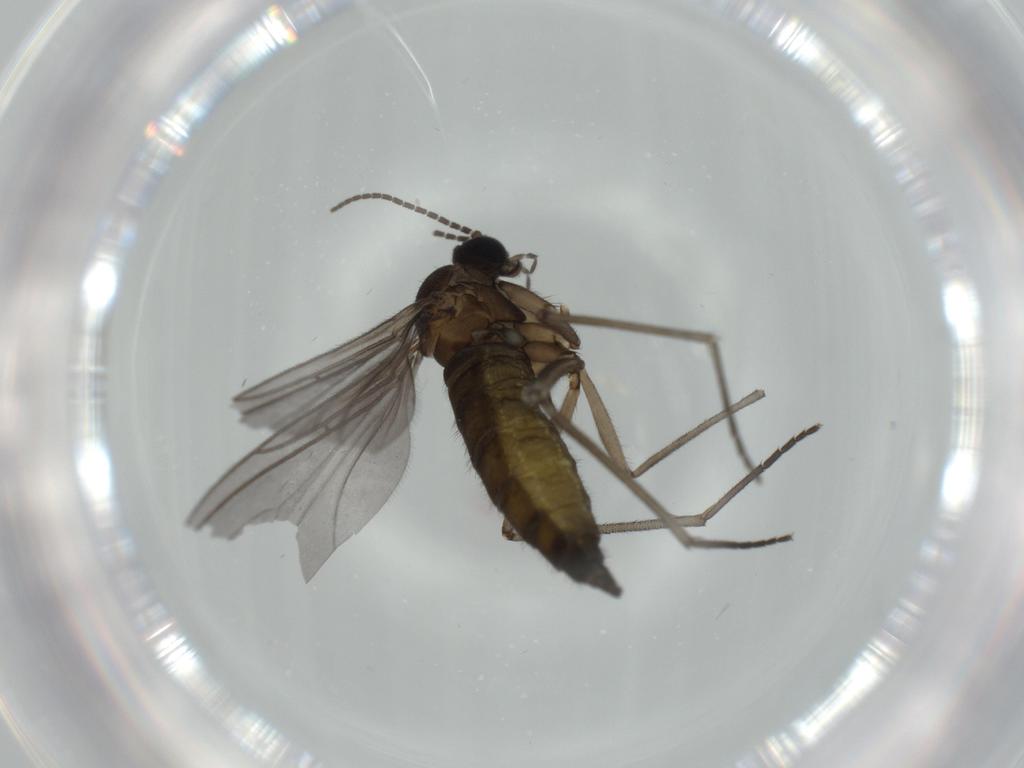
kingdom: Animalia
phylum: Arthropoda
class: Insecta
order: Diptera
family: Sciaridae
